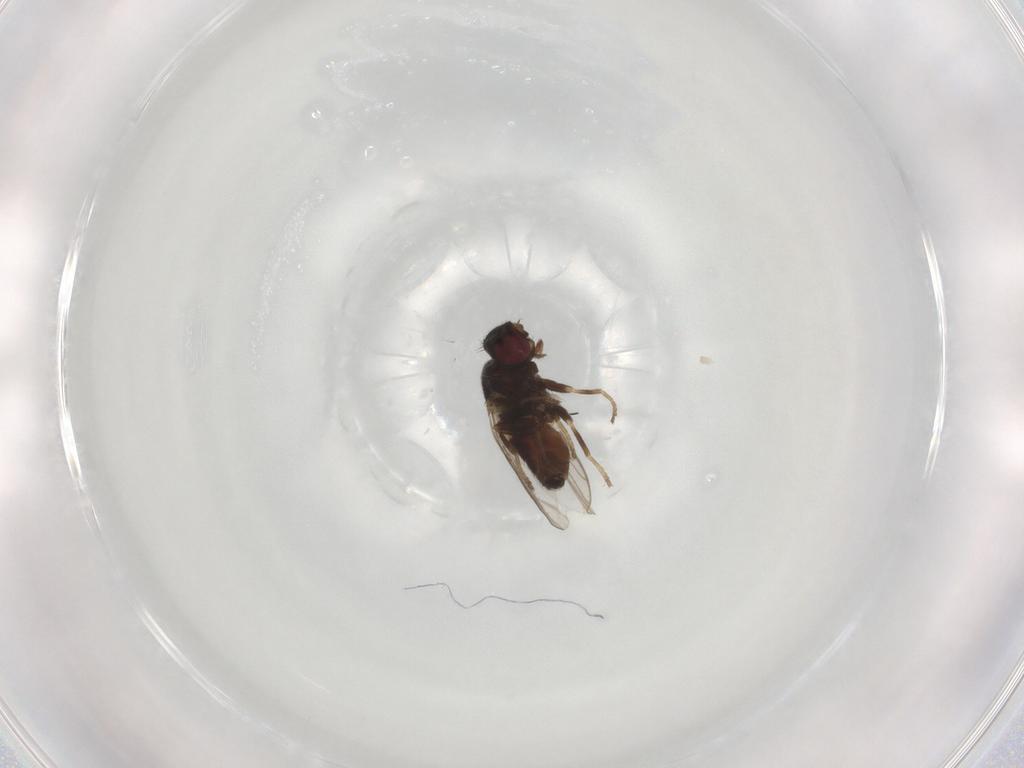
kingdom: Animalia
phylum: Arthropoda
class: Insecta
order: Diptera
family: Chloropidae
